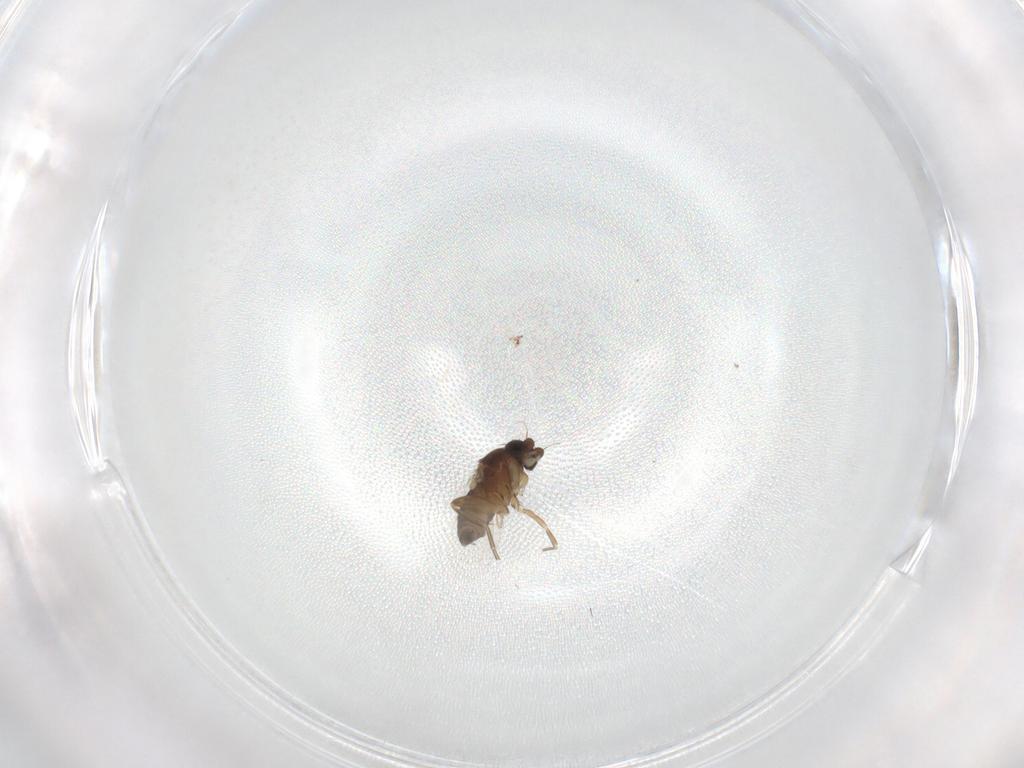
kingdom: Animalia
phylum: Arthropoda
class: Insecta
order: Diptera
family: Phoridae
